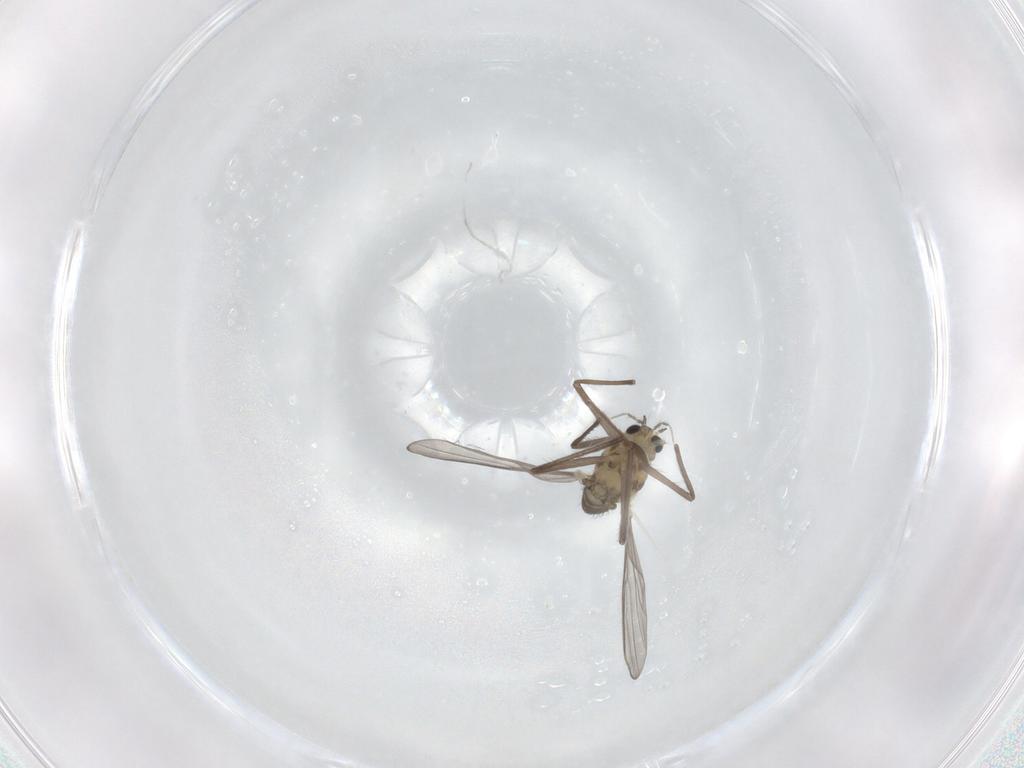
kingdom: Animalia
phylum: Arthropoda
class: Insecta
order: Diptera
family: Chironomidae
